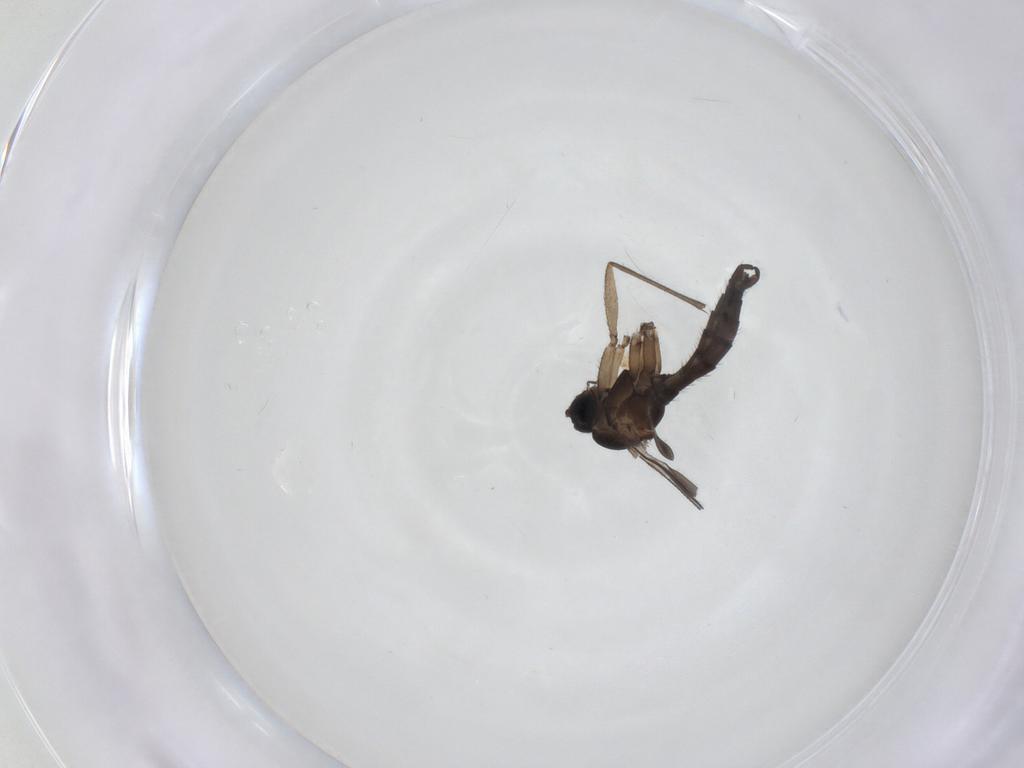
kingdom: Animalia
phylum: Arthropoda
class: Insecta
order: Diptera
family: Sciaridae
